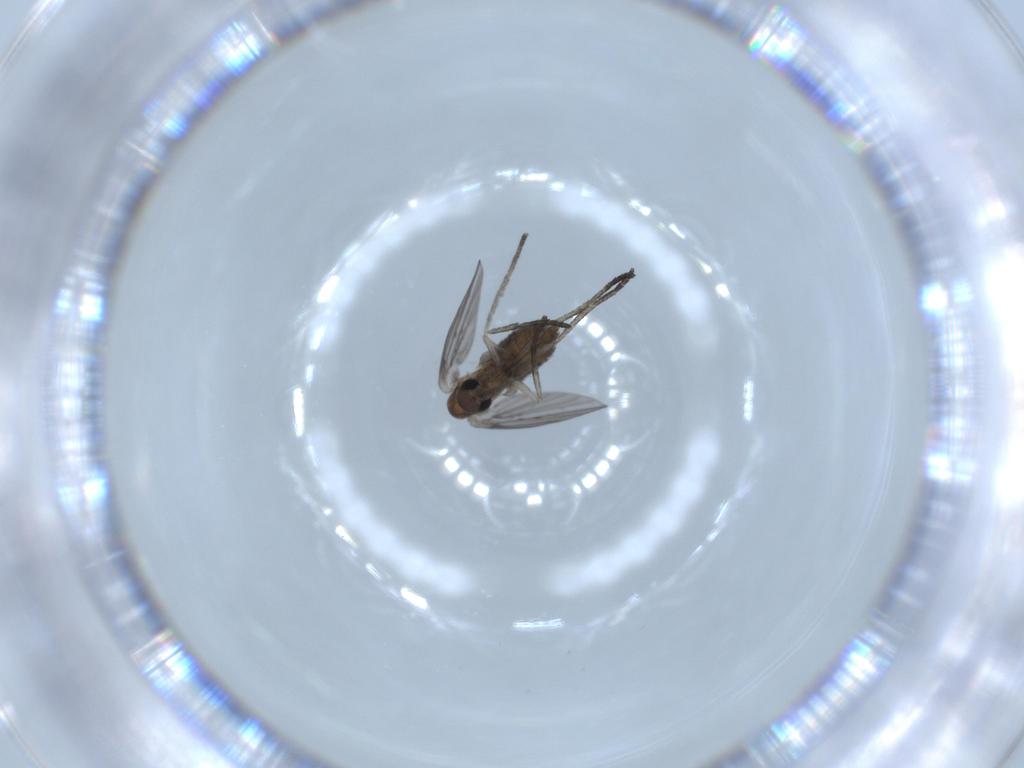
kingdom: Animalia
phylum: Arthropoda
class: Insecta
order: Diptera
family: Psychodidae
